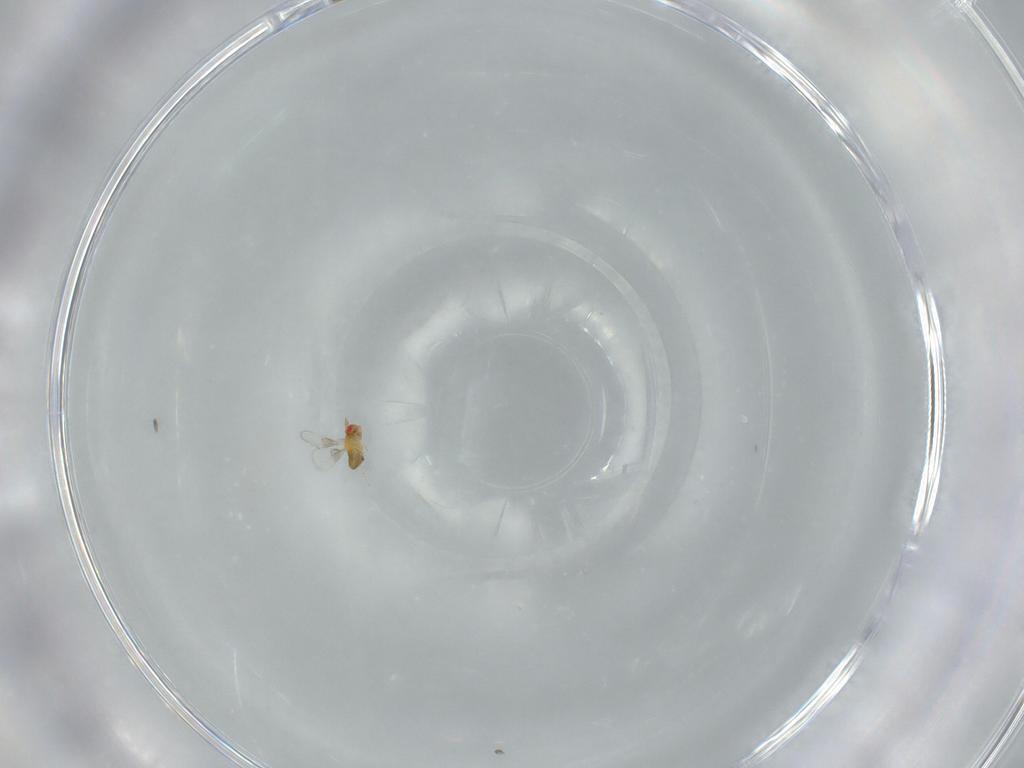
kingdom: Animalia
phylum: Arthropoda
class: Insecta
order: Hymenoptera
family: Trichogrammatidae
